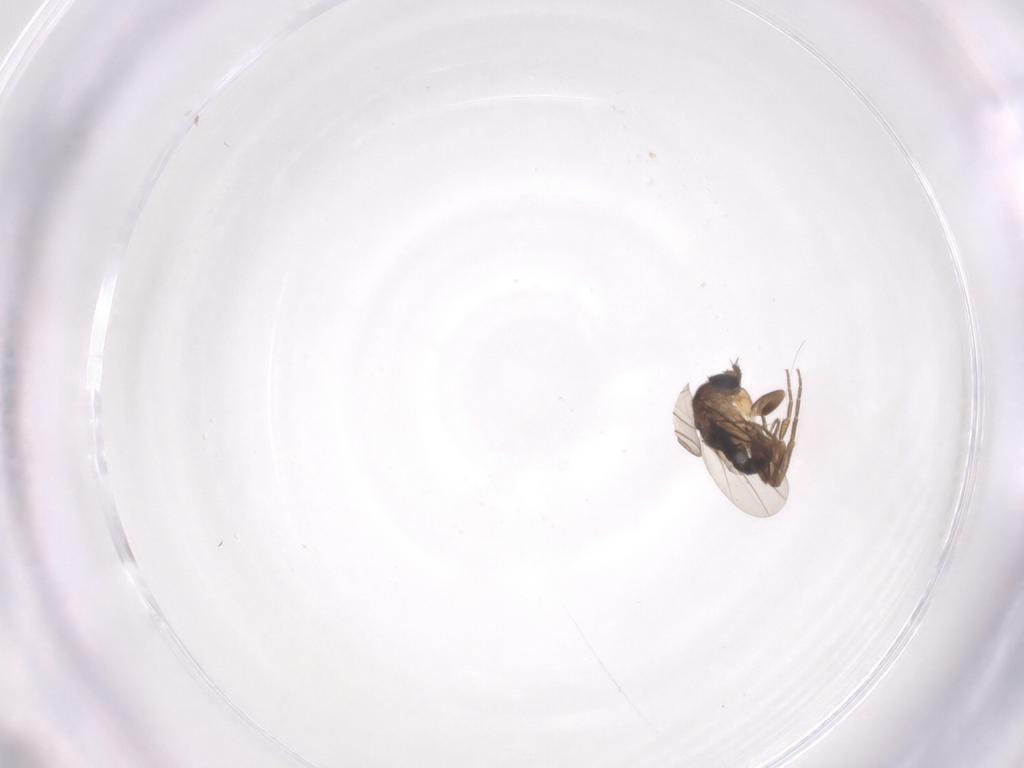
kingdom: Animalia
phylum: Arthropoda
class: Insecta
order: Diptera
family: Phoridae
